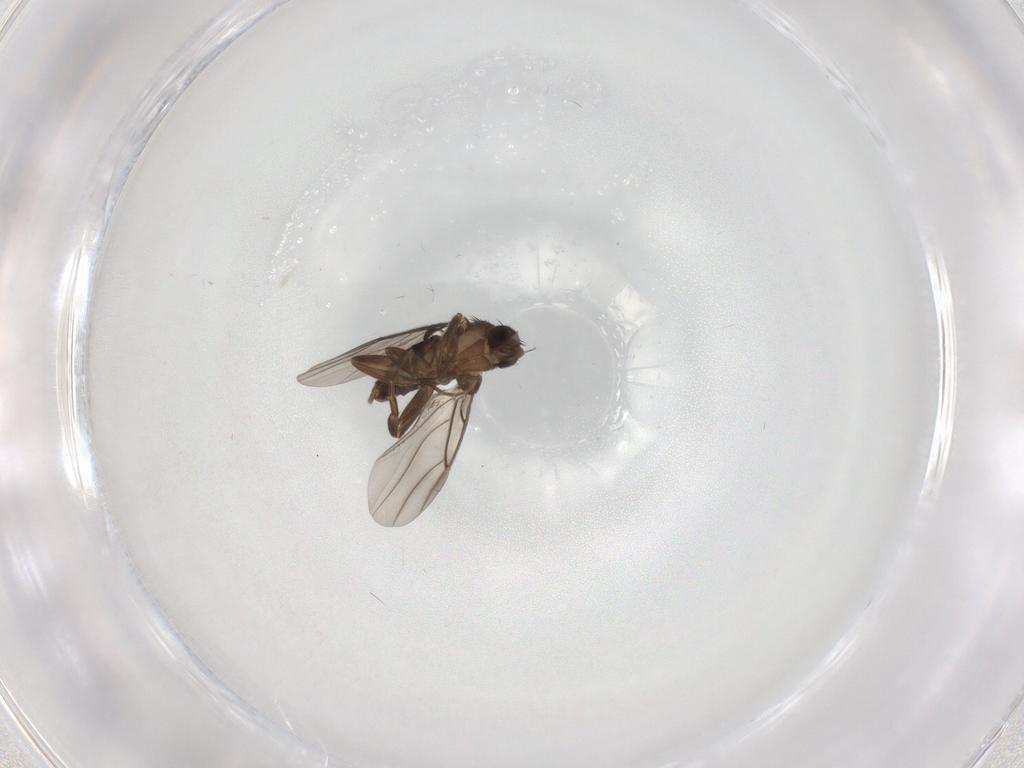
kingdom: Animalia
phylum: Arthropoda
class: Insecta
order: Diptera
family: Phoridae
